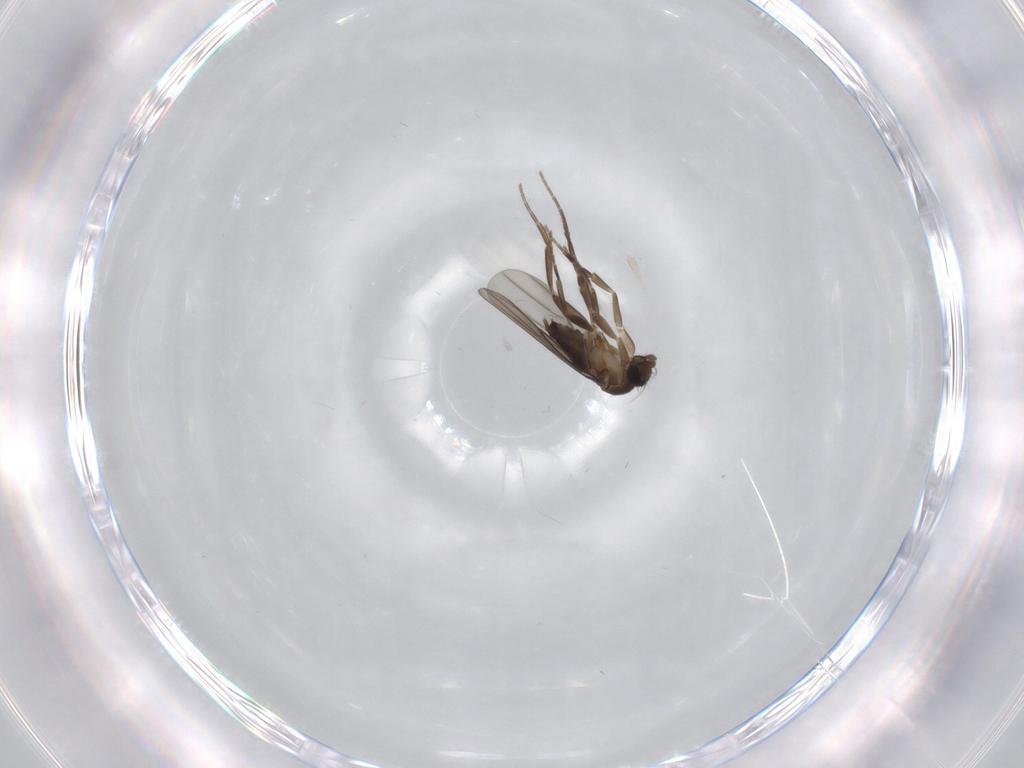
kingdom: Animalia
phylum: Arthropoda
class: Insecta
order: Diptera
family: Phoridae
